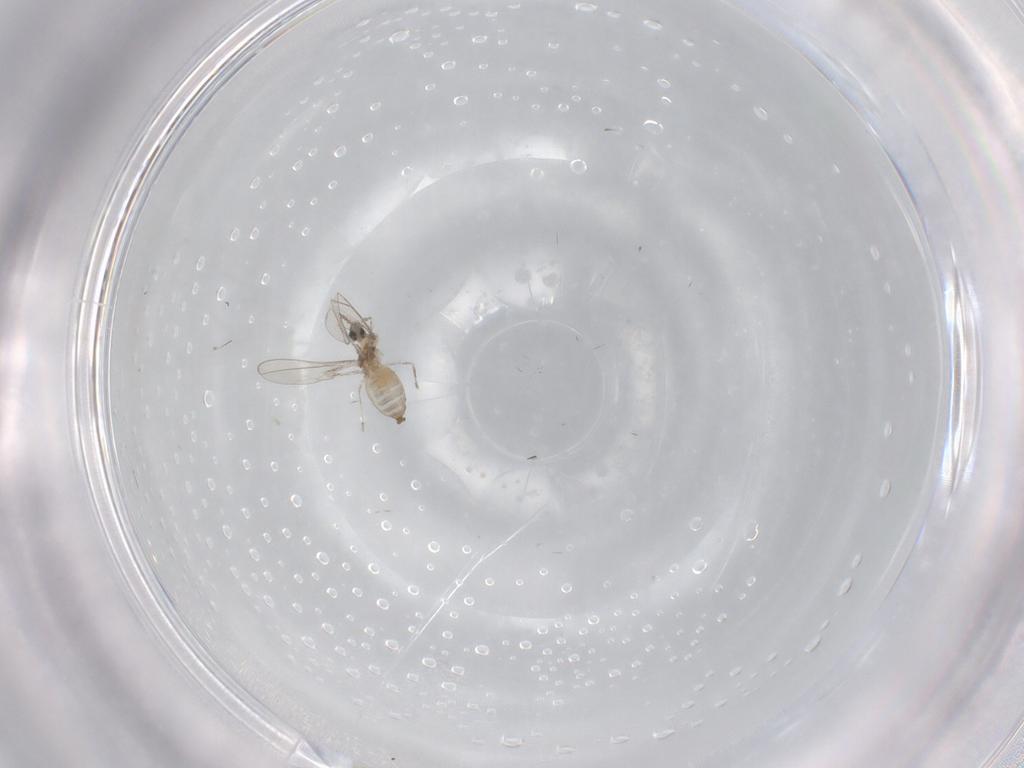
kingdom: Animalia
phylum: Arthropoda
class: Insecta
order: Diptera
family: Cecidomyiidae
